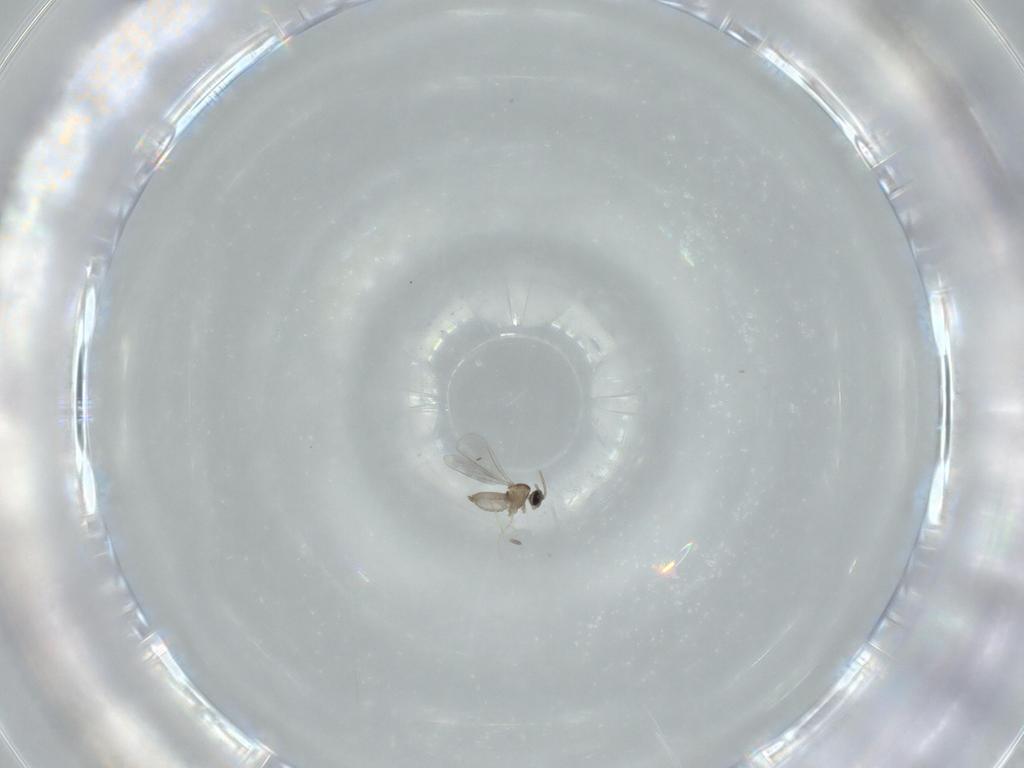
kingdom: Animalia
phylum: Arthropoda
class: Insecta
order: Diptera
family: Cecidomyiidae
